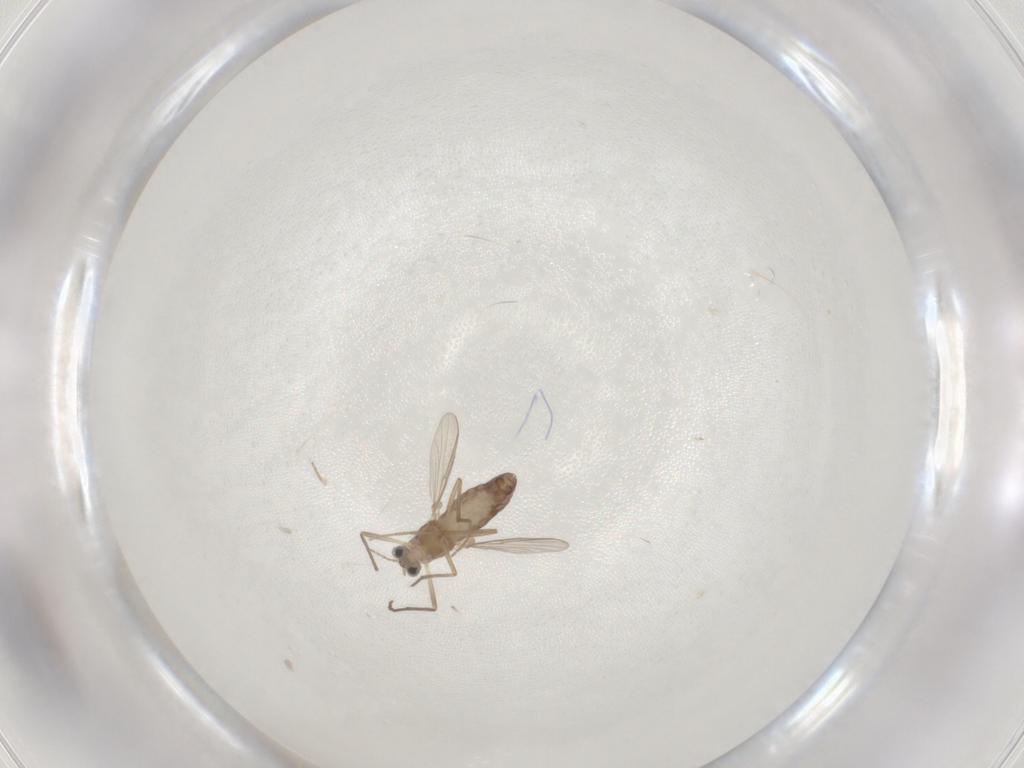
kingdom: Animalia
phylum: Arthropoda
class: Insecta
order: Diptera
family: Chironomidae
